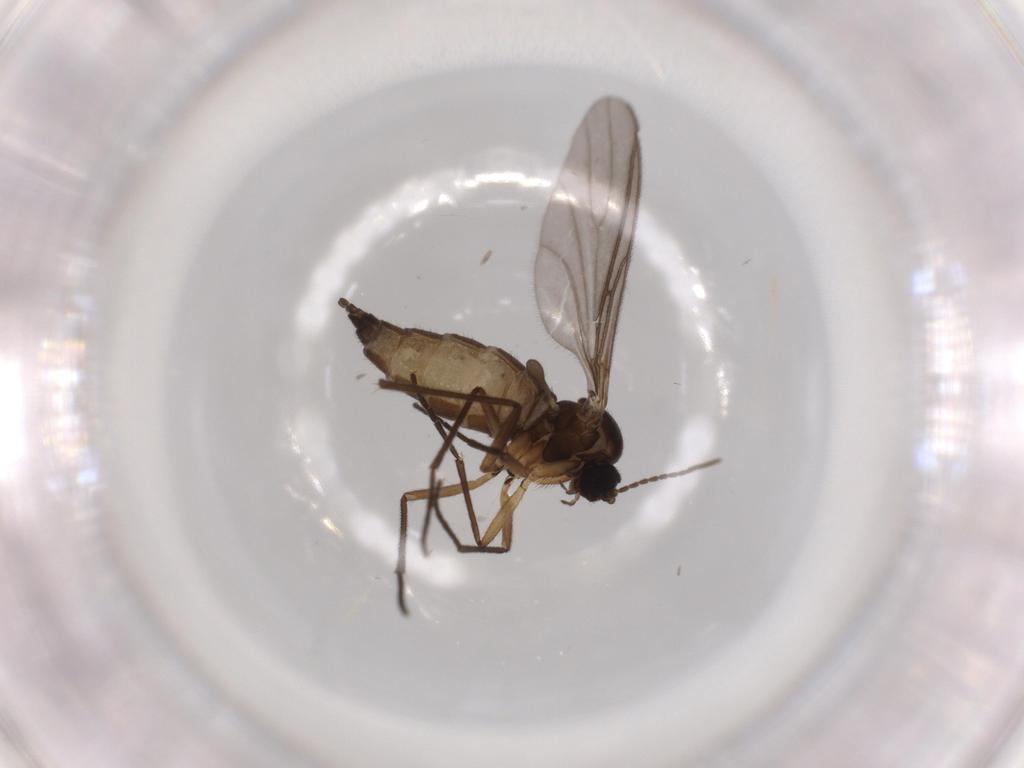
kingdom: Animalia
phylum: Arthropoda
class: Insecta
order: Diptera
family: Sciaridae
